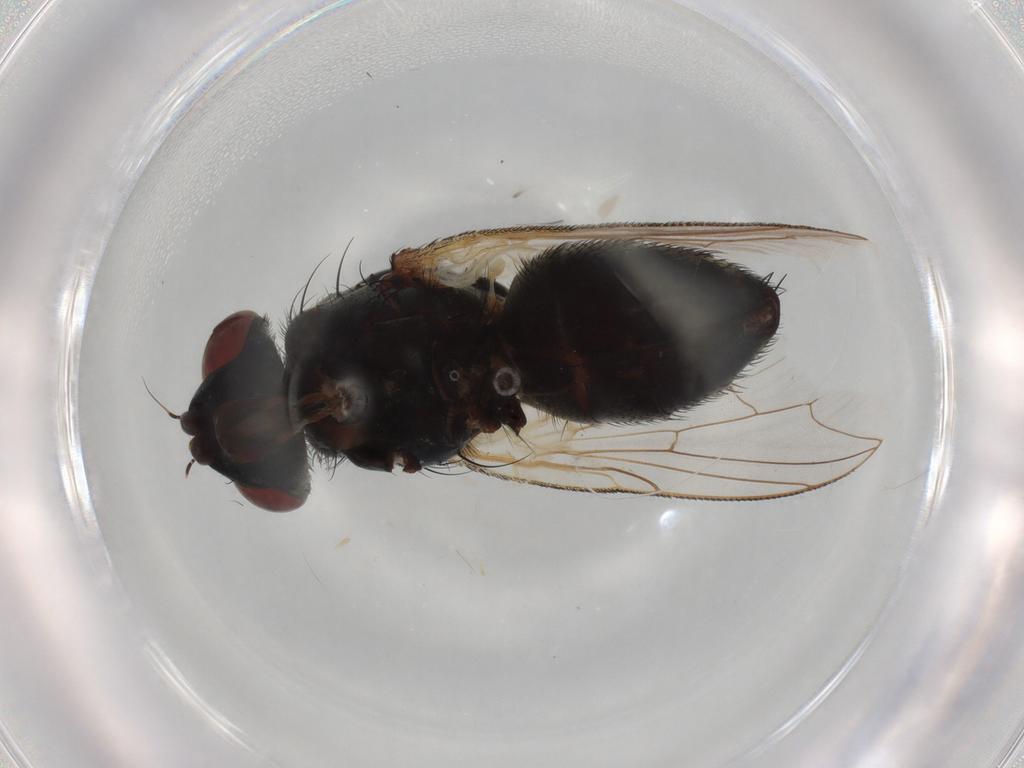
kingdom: Animalia
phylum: Arthropoda
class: Insecta
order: Diptera
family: Sarcophagidae
